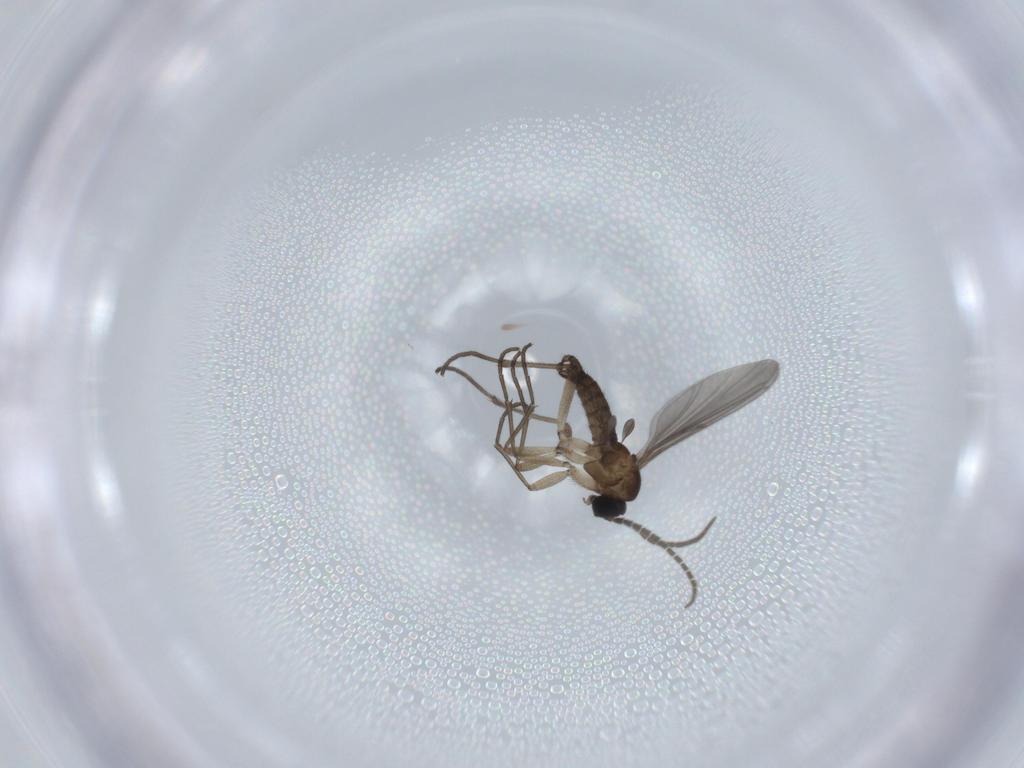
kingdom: Animalia
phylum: Arthropoda
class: Insecta
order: Diptera
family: Sciaridae
